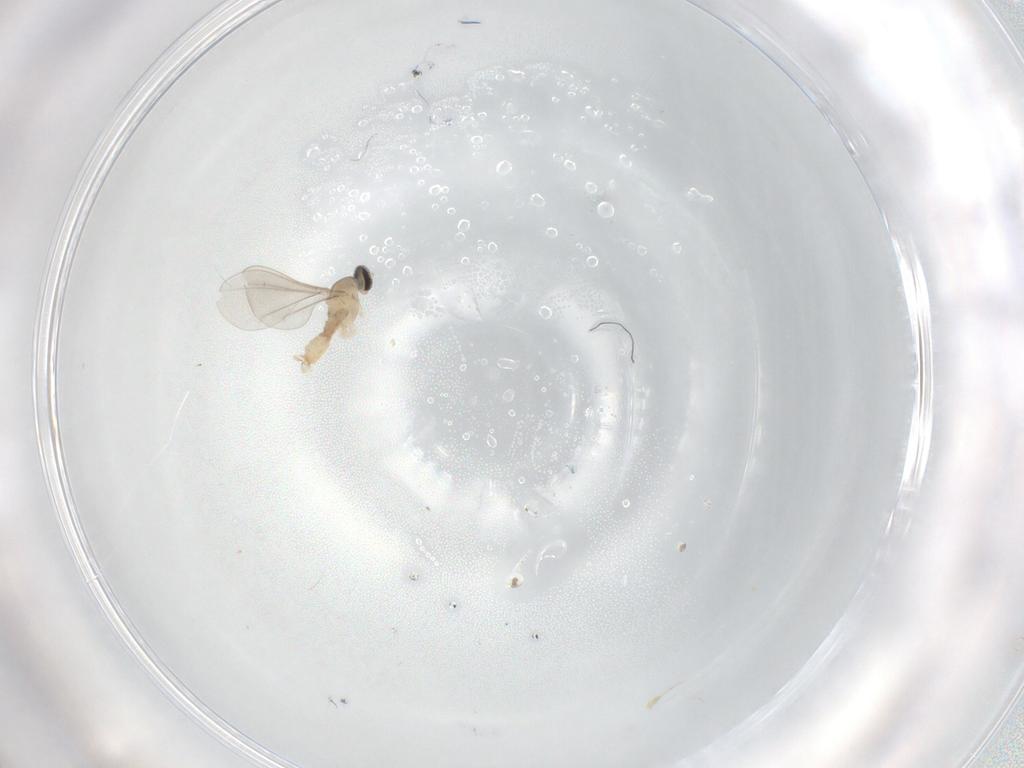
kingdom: Animalia
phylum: Arthropoda
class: Insecta
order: Diptera
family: Cecidomyiidae
